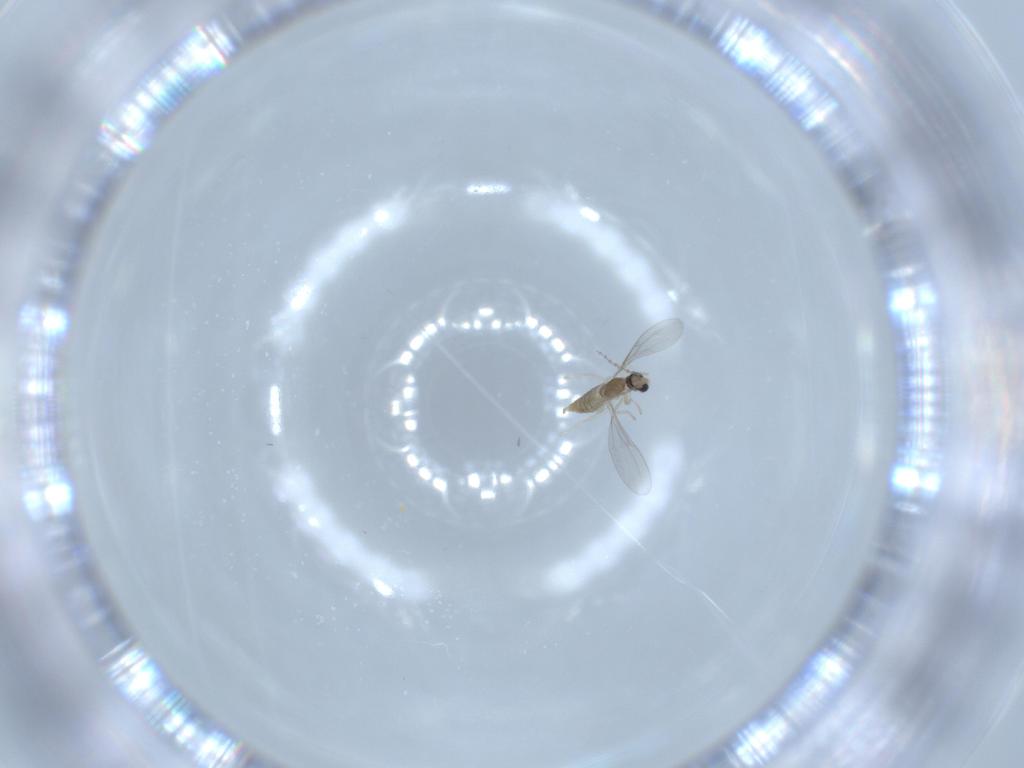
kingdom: Animalia
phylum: Arthropoda
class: Insecta
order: Diptera
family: Cecidomyiidae
